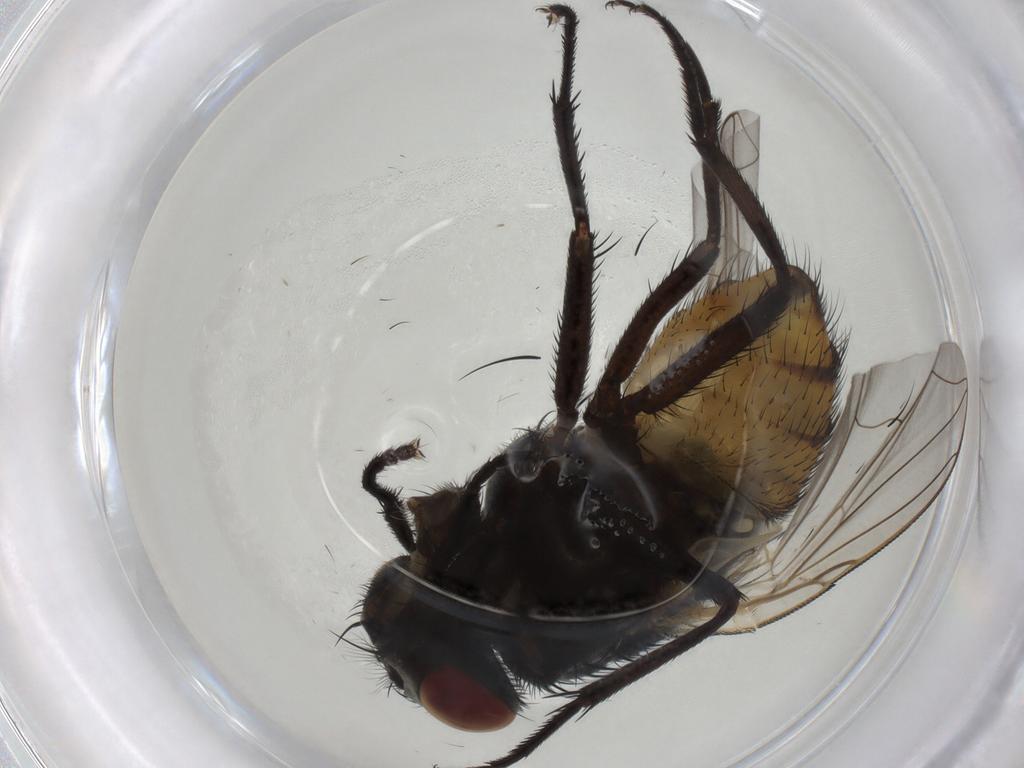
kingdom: Animalia
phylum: Arthropoda
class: Insecta
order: Diptera
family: Muscidae
